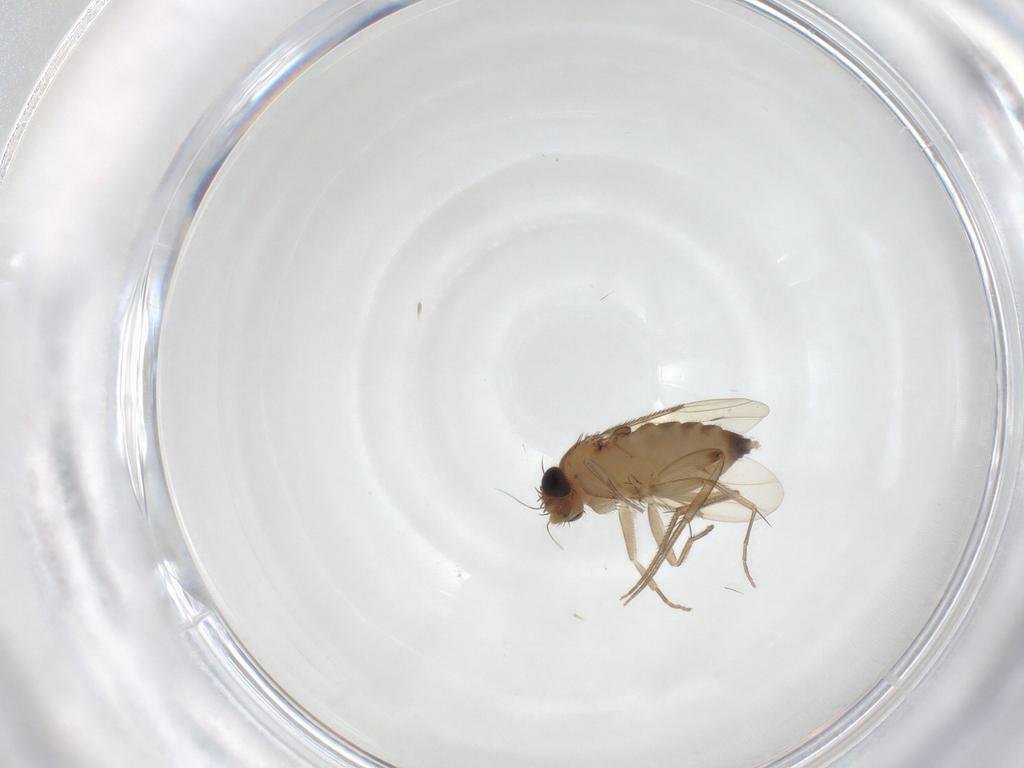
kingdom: Animalia
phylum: Arthropoda
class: Insecta
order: Diptera
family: Phoridae
